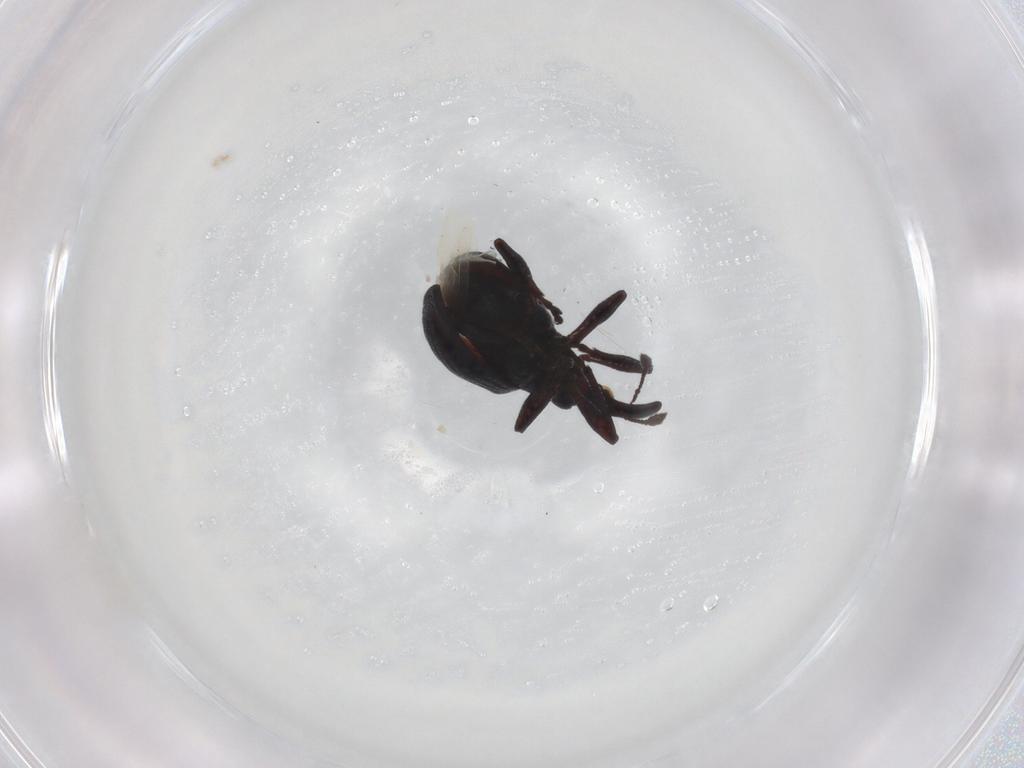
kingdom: Animalia
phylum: Arthropoda
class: Insecta
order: Coleoptera
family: Brentidae
